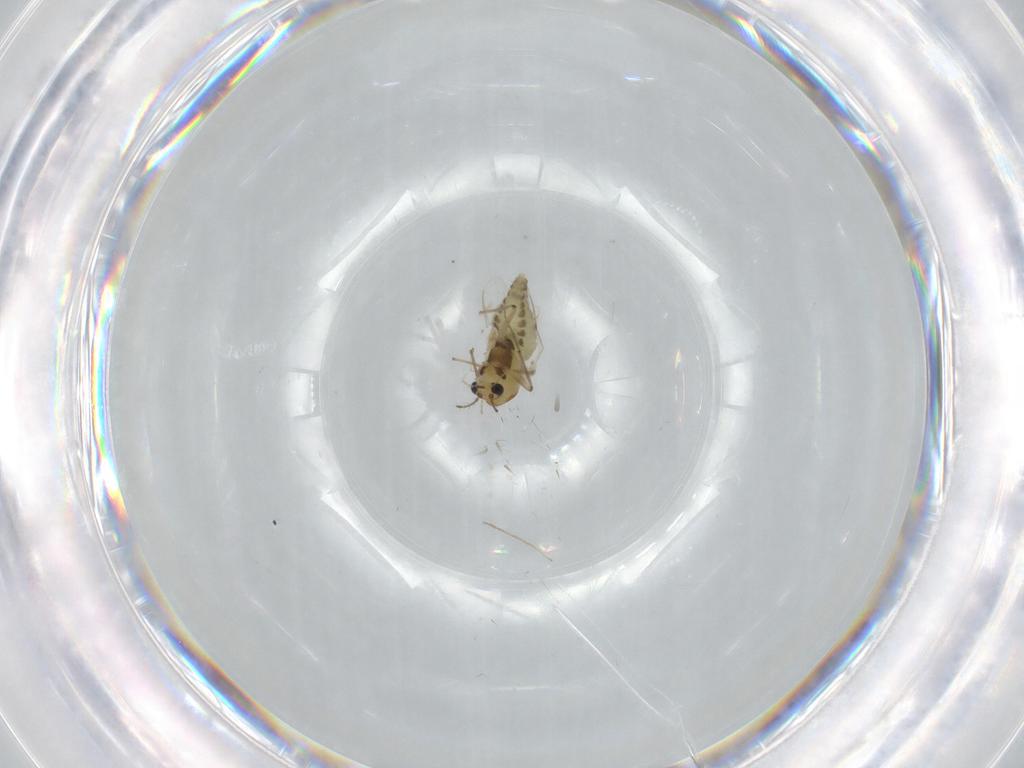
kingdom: Animalia
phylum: Arthropoda
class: Insecta
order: Diptera
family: Chironomidae
